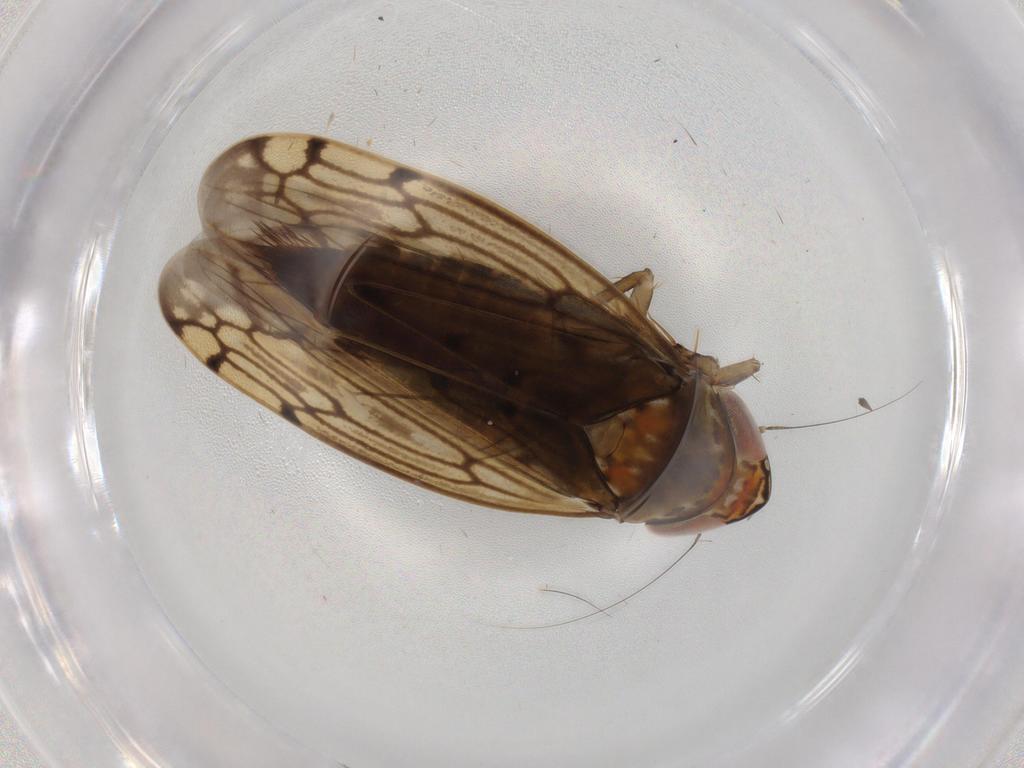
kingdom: Animalia
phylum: Arthropoda
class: Insecta
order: Hemiptera
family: Cicadellidae
